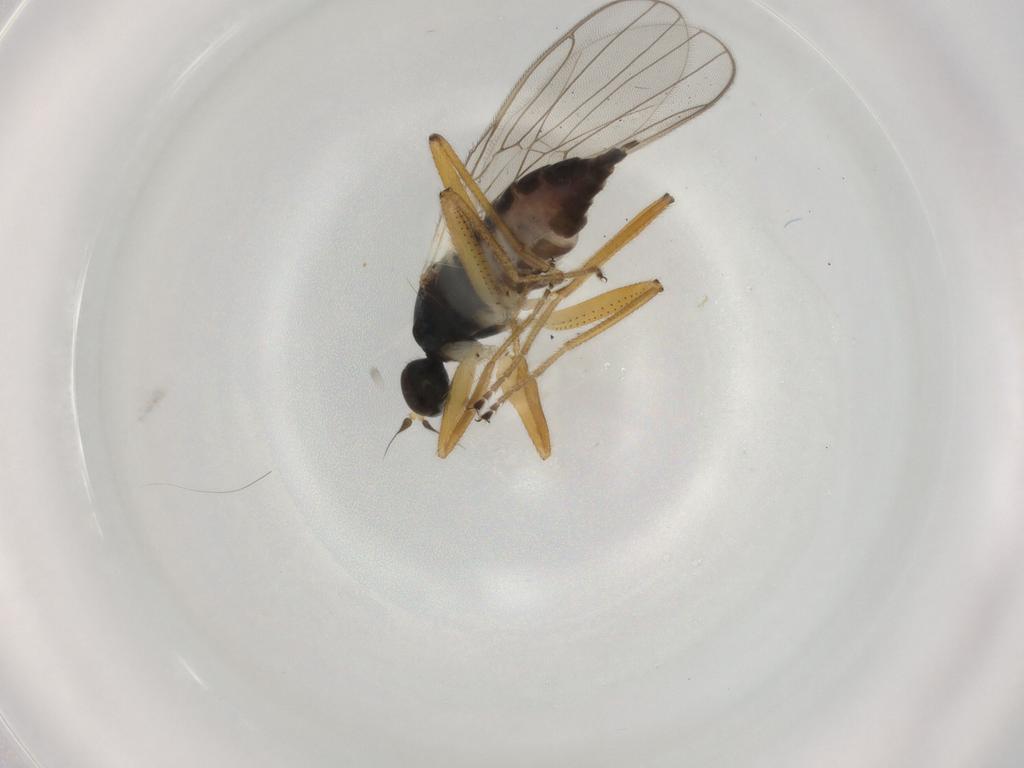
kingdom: Animalia
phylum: Arthropoda
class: Insecta
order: Diptera
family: Hybotidae
